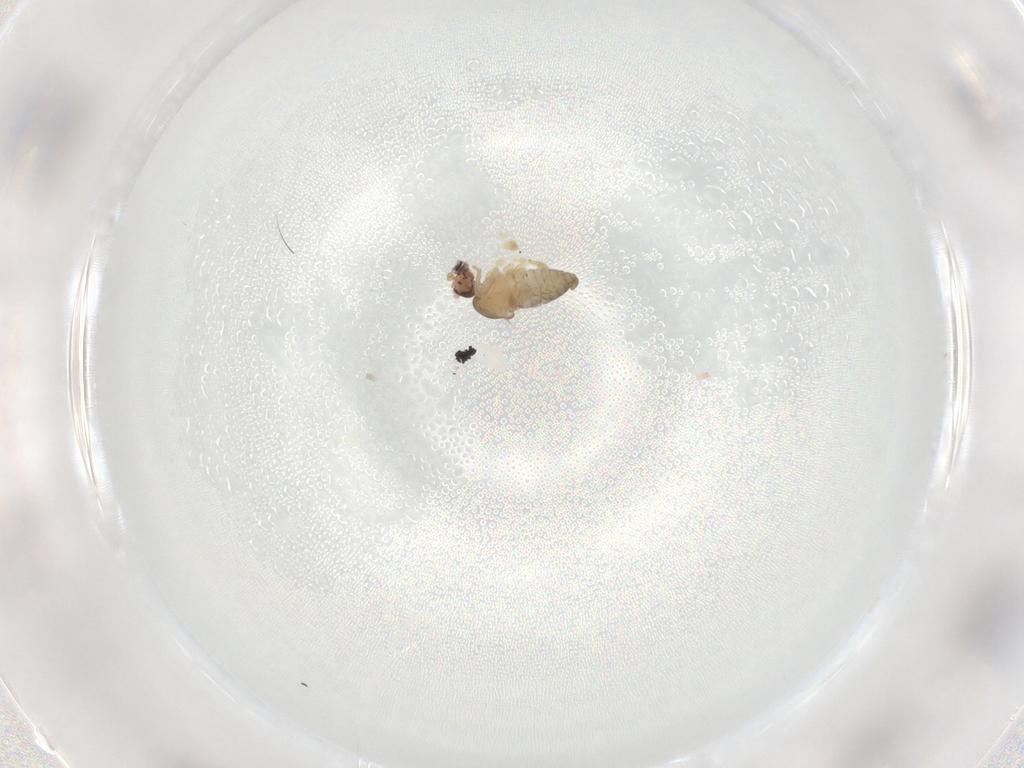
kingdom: Animalia
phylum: Arthropoda
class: Insecta
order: Diptera
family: Cecidomyiidae
